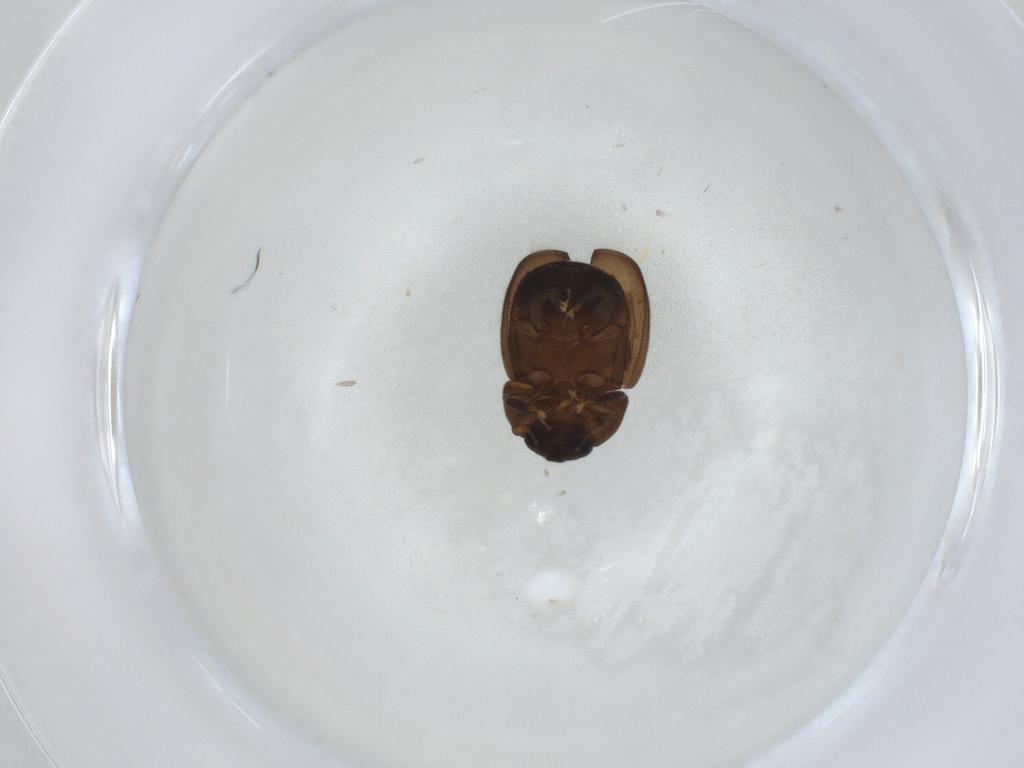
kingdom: Animalia
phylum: Arthropoda
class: Insecta
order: Coleoptera
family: Nitidulidae
